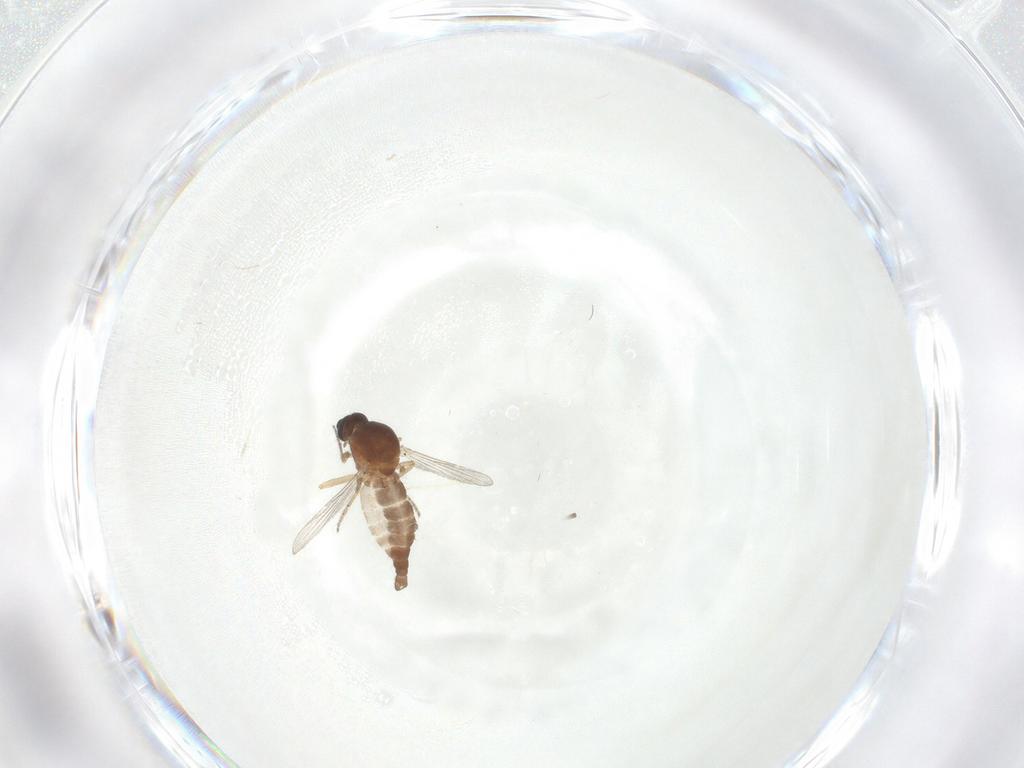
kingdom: Animalia
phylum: Arthropoda
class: Insecta
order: Diptera
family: Ceratopogonidae
